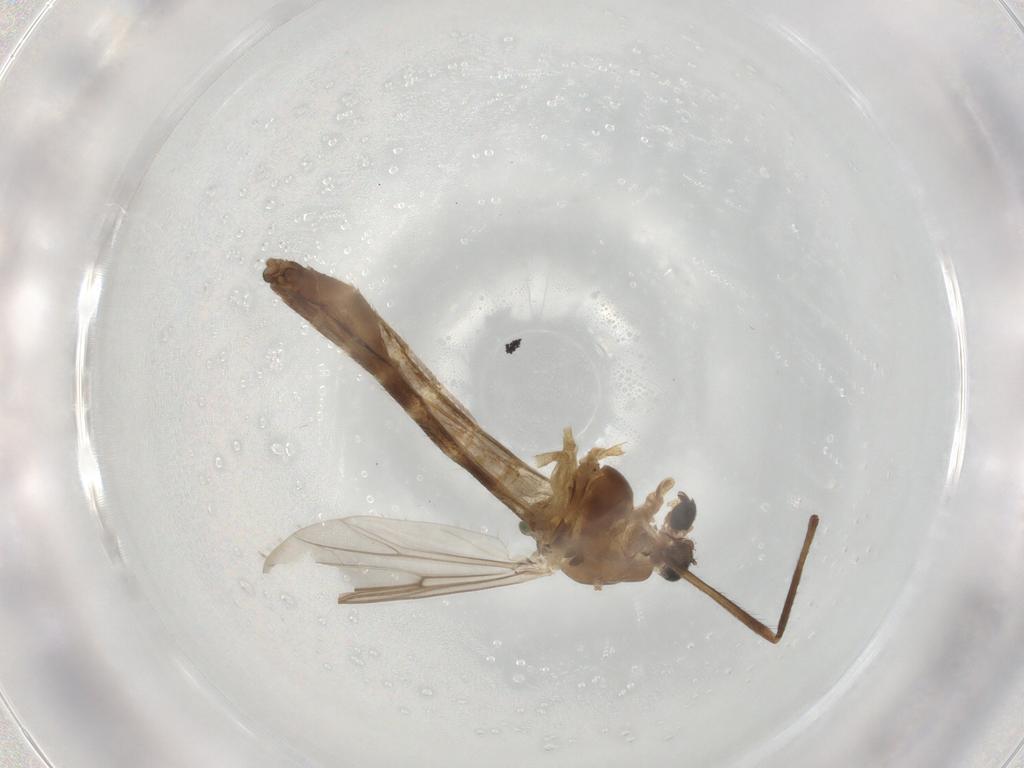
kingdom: Animalia
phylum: Arthropoda
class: Insecta
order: Diptera
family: Chironomidae
